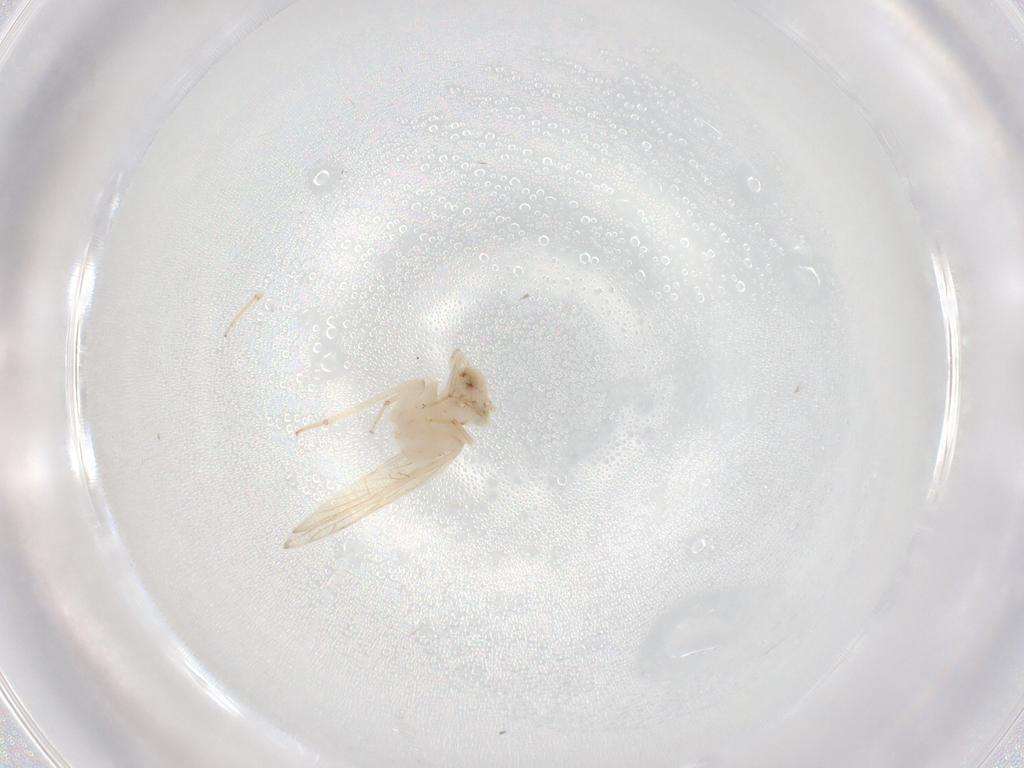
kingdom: Animalia
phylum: Arthropoda
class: Insecta
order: Psocodea
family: Lepidopsocidae
